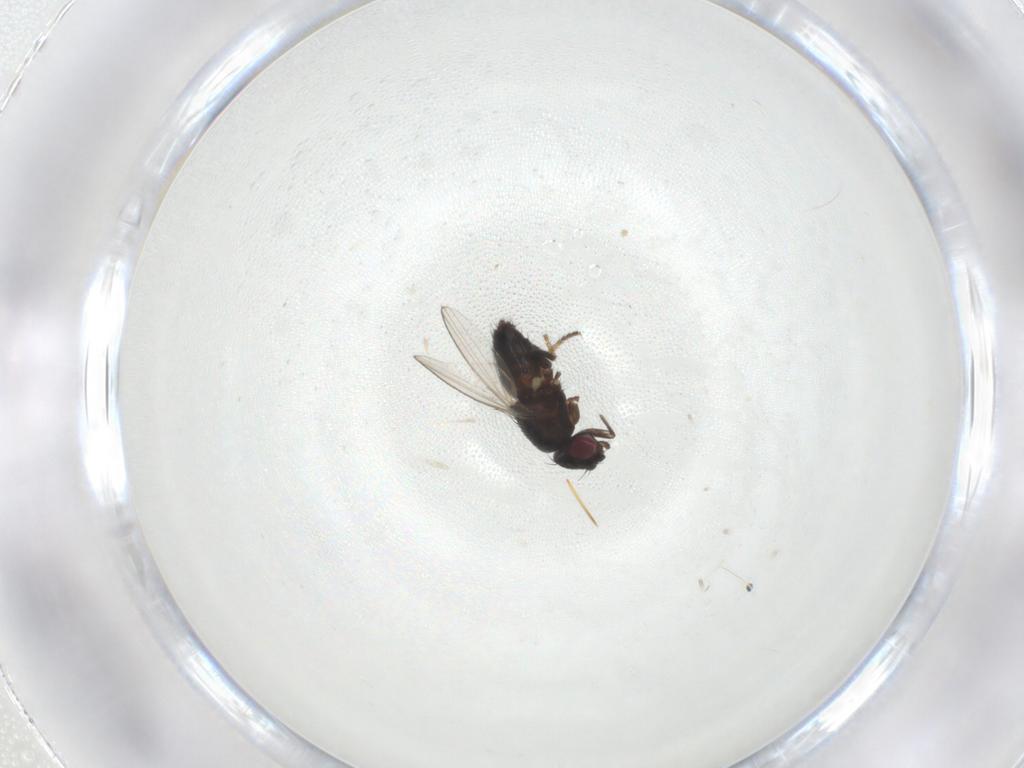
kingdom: Animalia
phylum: Arthropoda
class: Insecta
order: Diptera
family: Milichiidae
